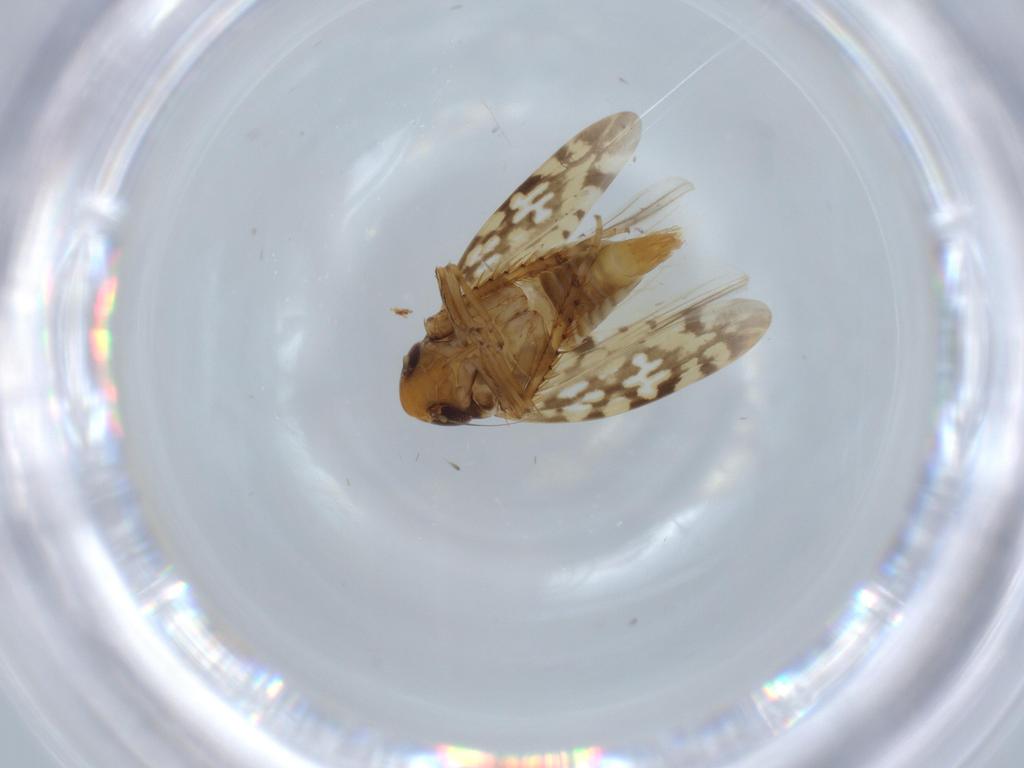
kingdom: Animalia
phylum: Arthropoda
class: Insecta
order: Hemiptera
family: Cicadellidae
